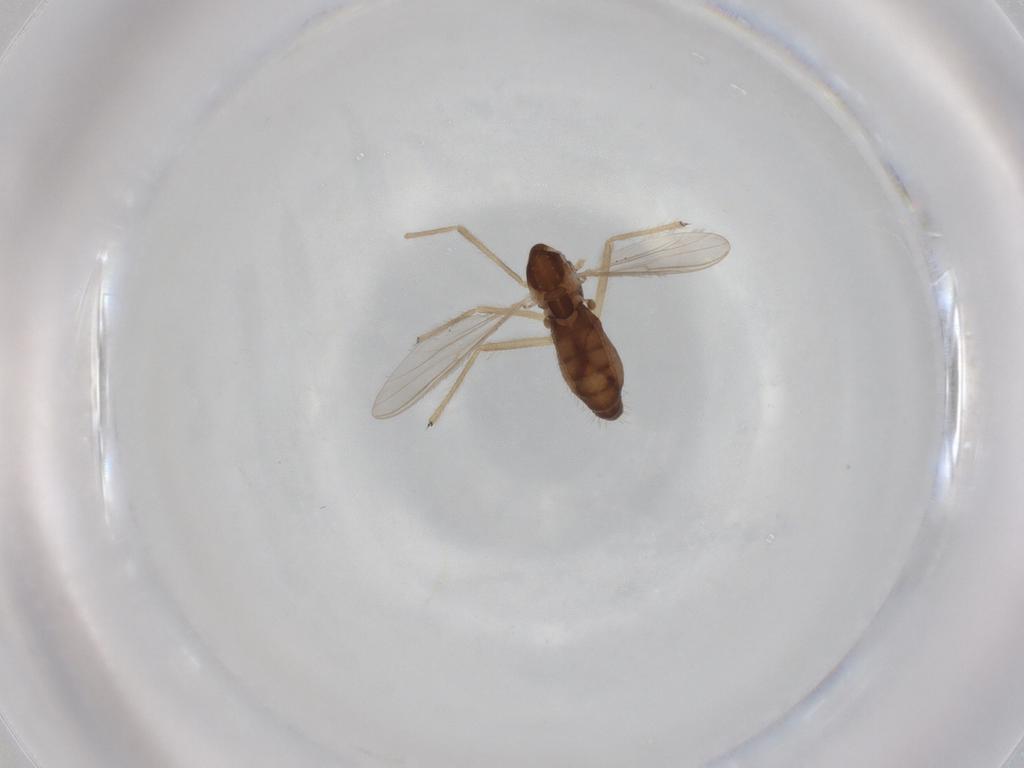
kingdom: Animalia
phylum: Arthropoda
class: Insecta
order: Diptera
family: Chironomidae
